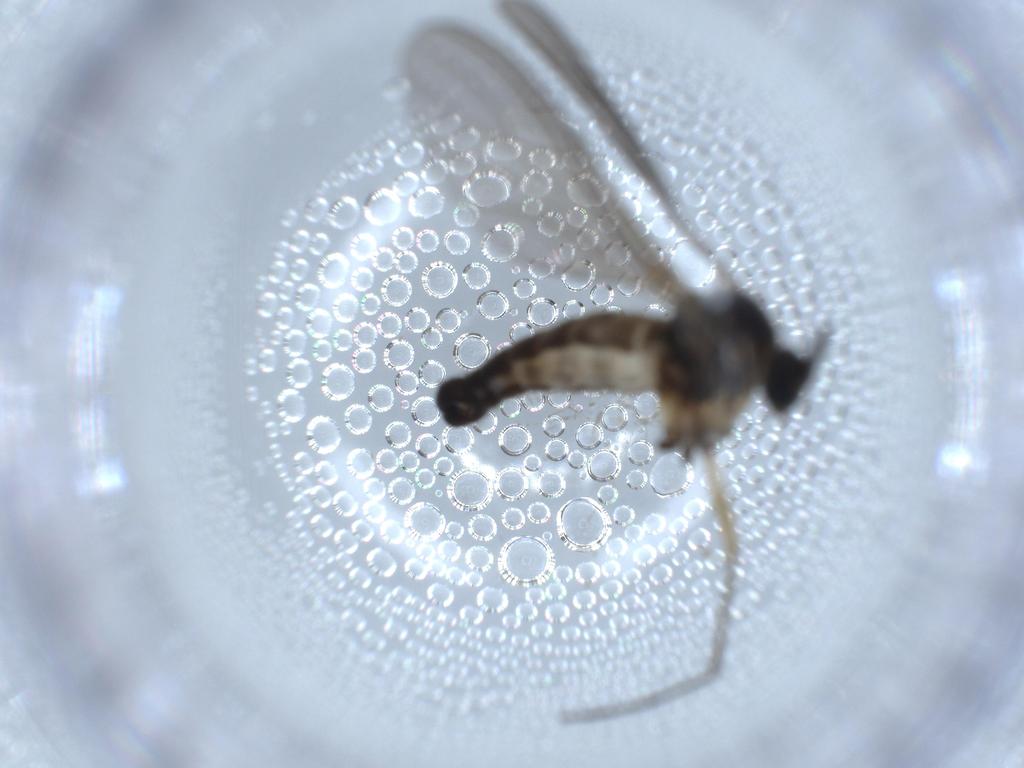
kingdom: Animalia
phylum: Arthropoda
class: Insecta
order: Diptera
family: Sciaridae
